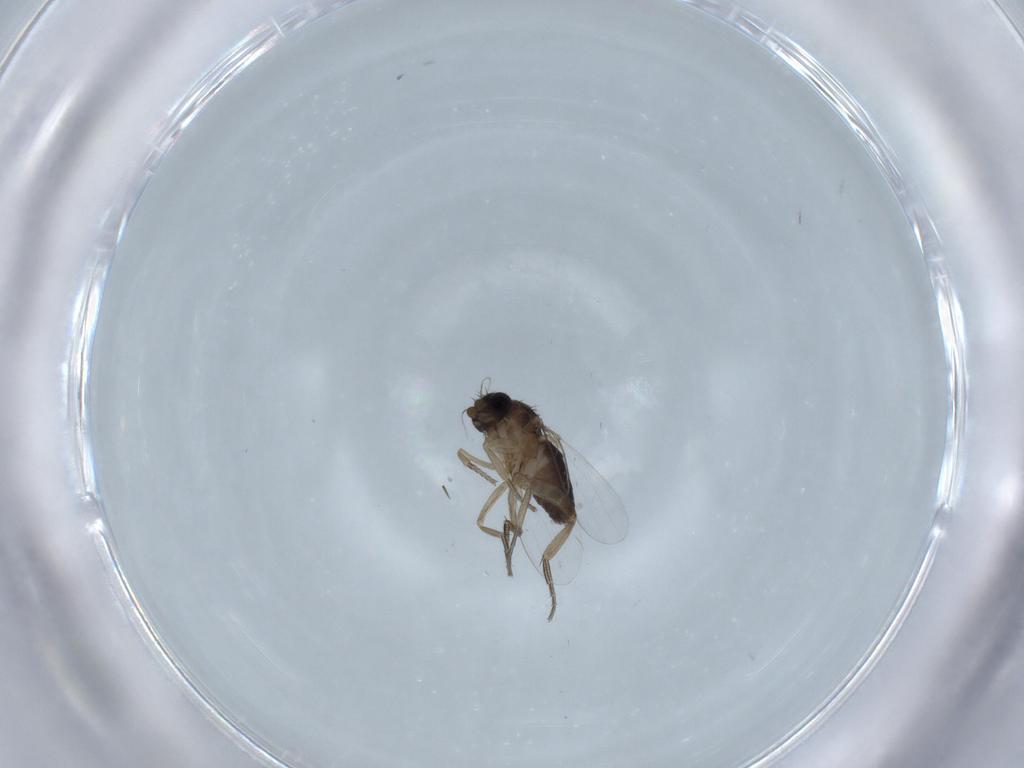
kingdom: Animalia
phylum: Arthropoda
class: Insecta
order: Diptera
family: Phoridae
